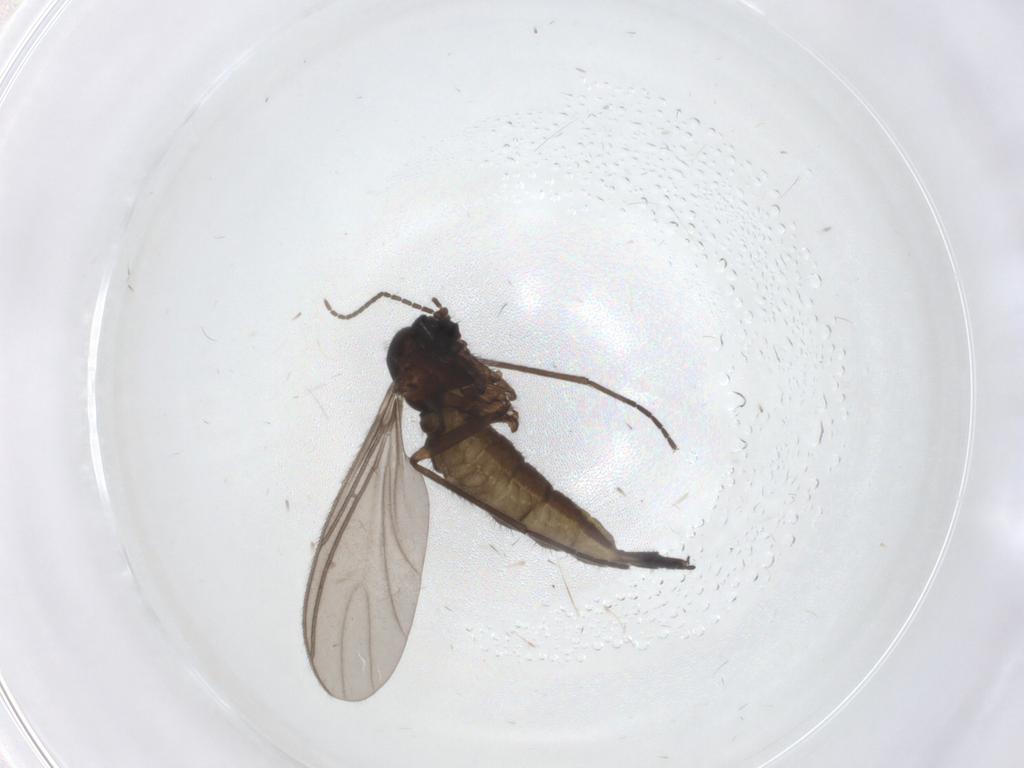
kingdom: Animalia
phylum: Arthropoda
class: Insecta
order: Diptera
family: Sciaridae
